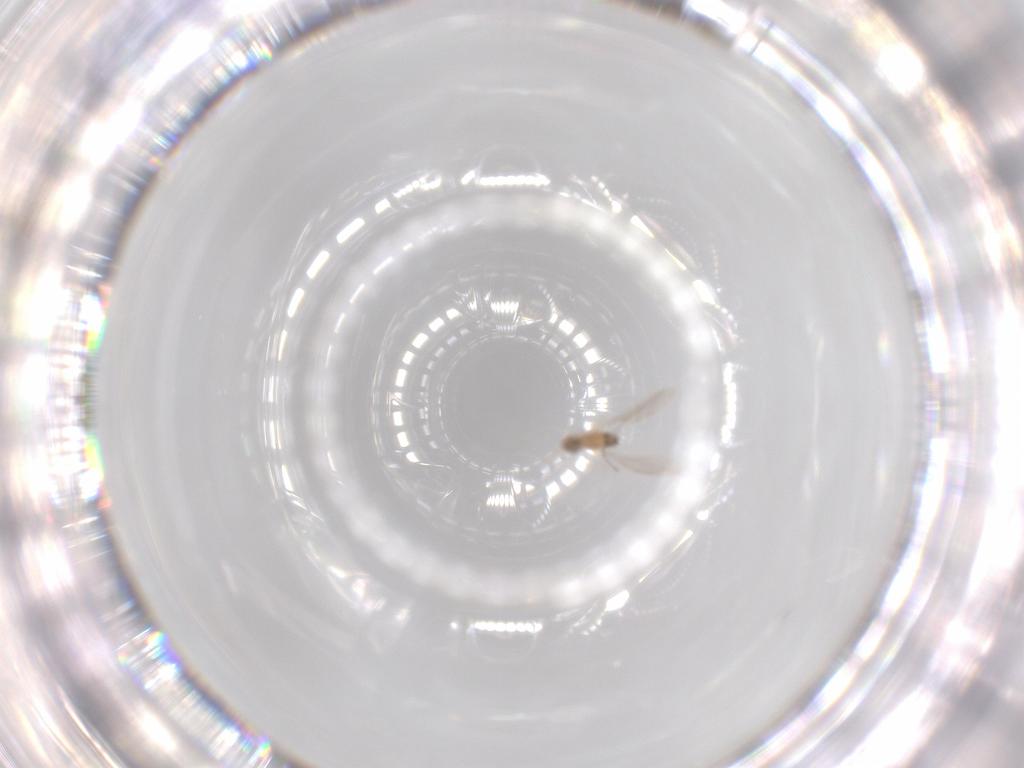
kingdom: Animalia
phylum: Arthropoda
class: Insecta
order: Diptera
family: Cecidomyiidae
